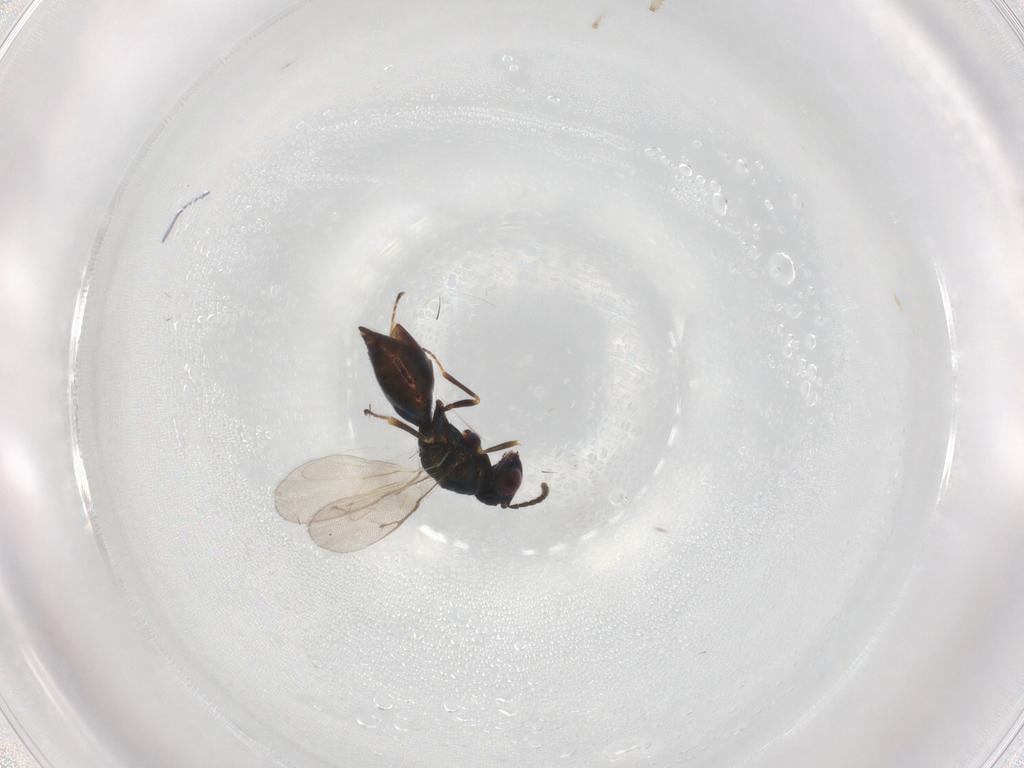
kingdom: Animalia
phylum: Arthropoda
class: Insecta
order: Hymenoptera
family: Pteromalidae
